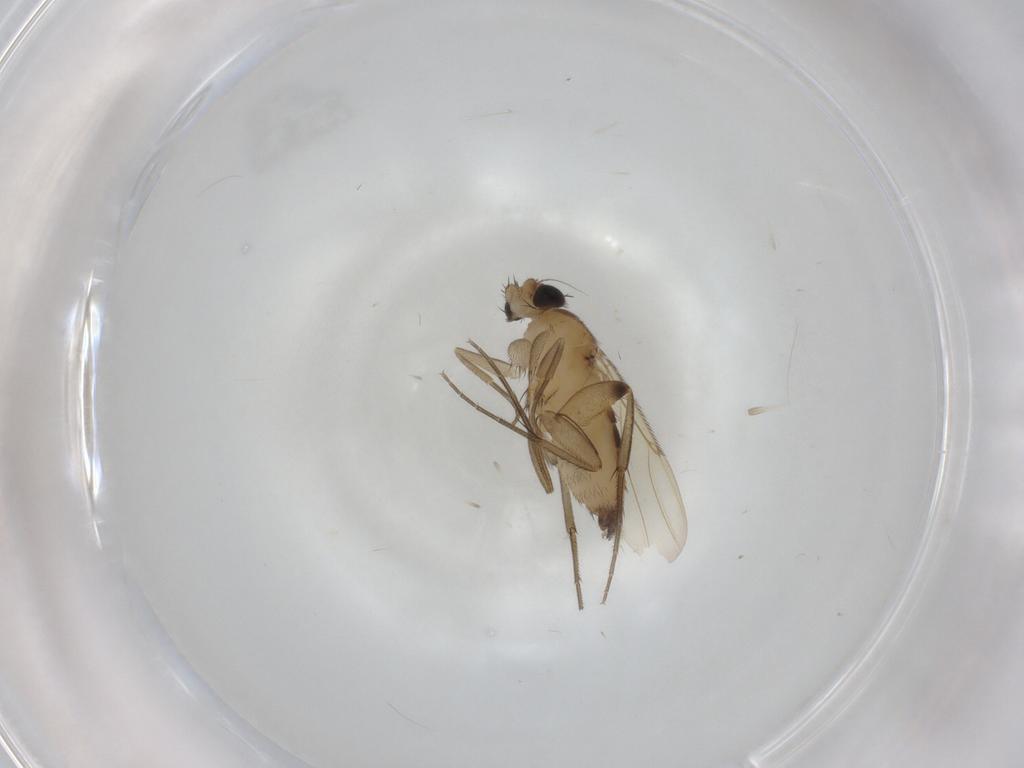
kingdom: Animalia
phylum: Arthropoda
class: Insecta
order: Diptera
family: Phoridae
